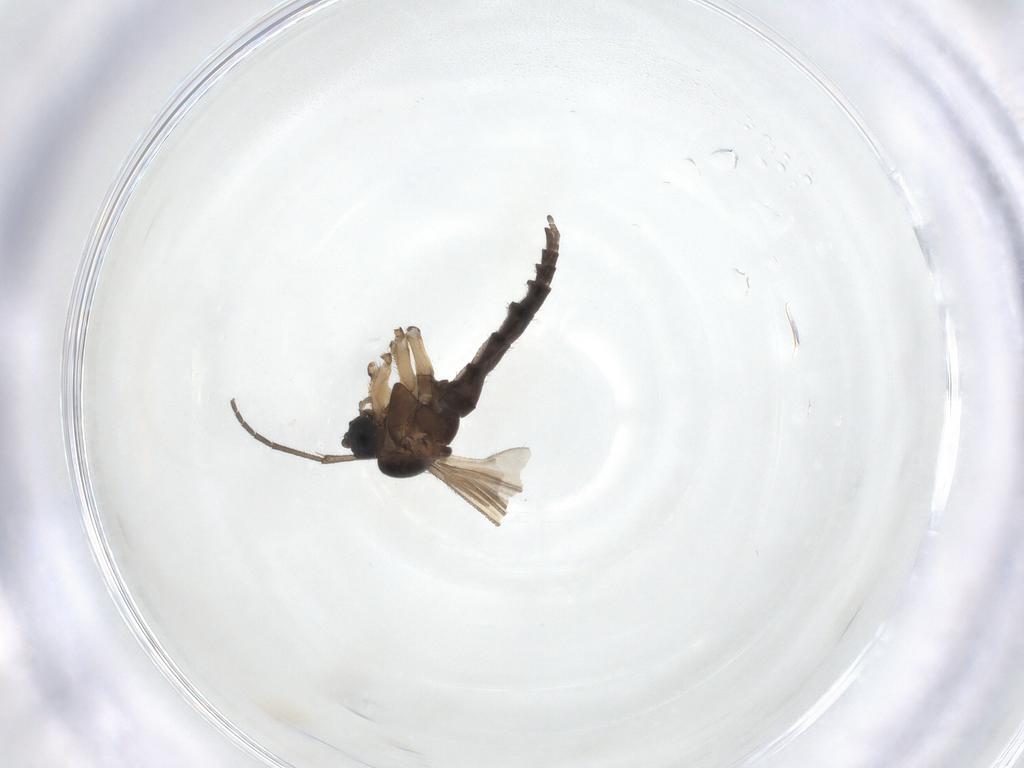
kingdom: Animalia
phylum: Arthropoda
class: Insecta
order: Diptera
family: Sciaridae
